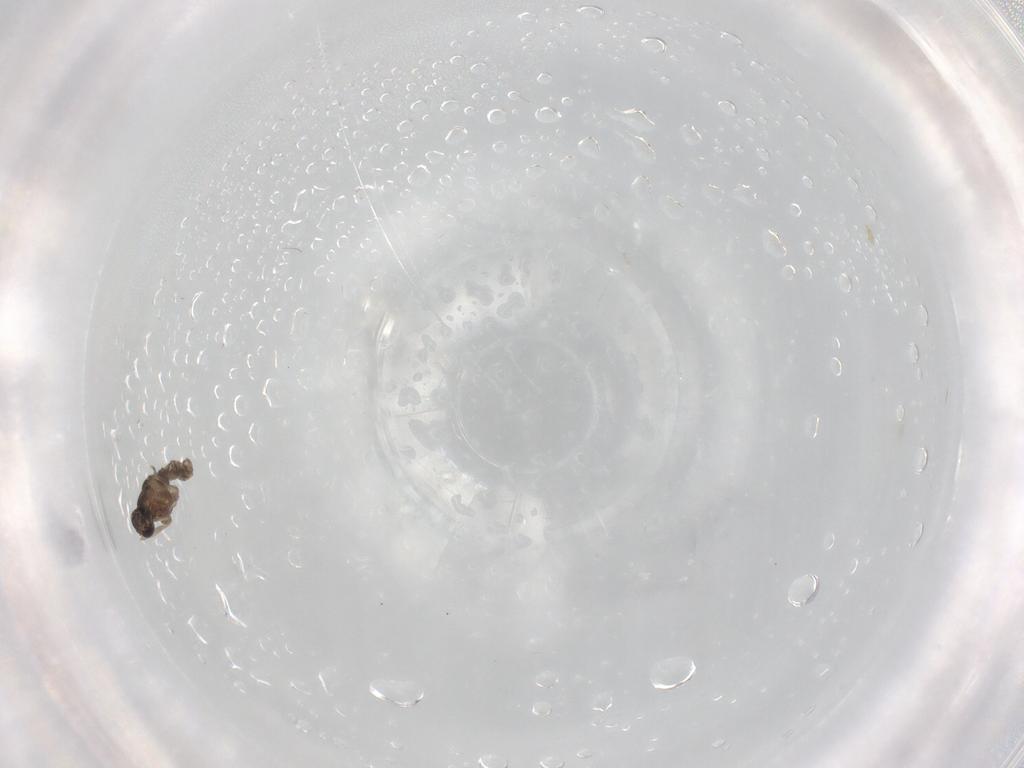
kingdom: Animalia
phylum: Arthropoda
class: Insecta
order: Diptera
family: Cecidomyiidae
